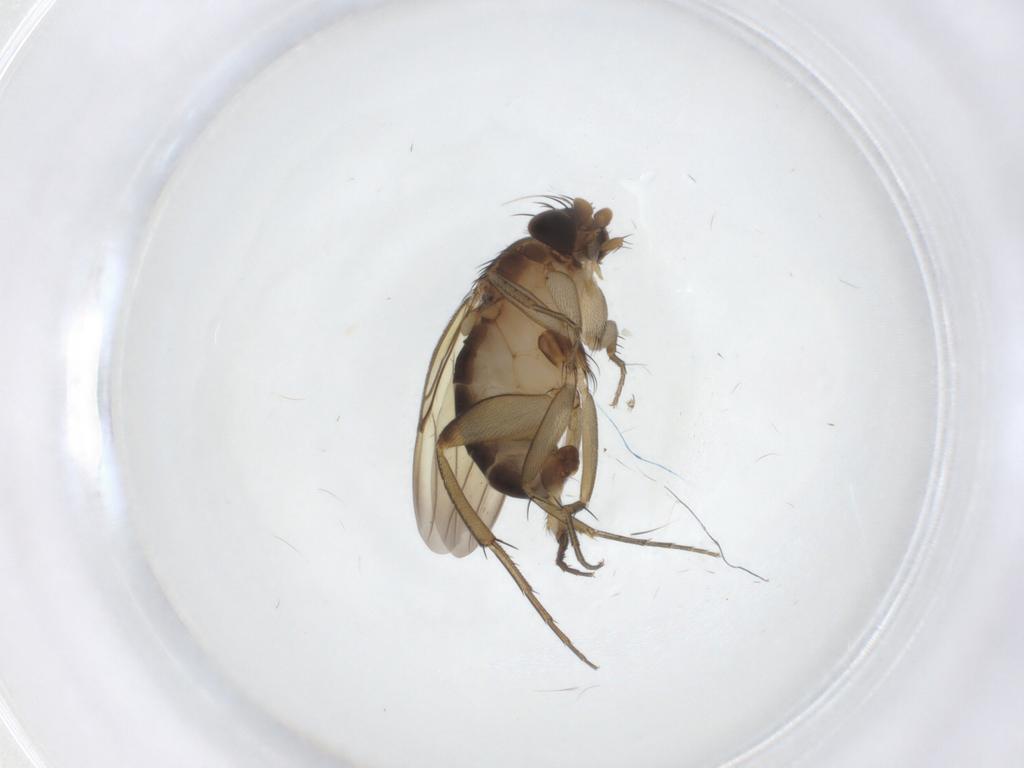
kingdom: Animalia
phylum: Arthropoda
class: Insecta
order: Diptera
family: Phoridae
